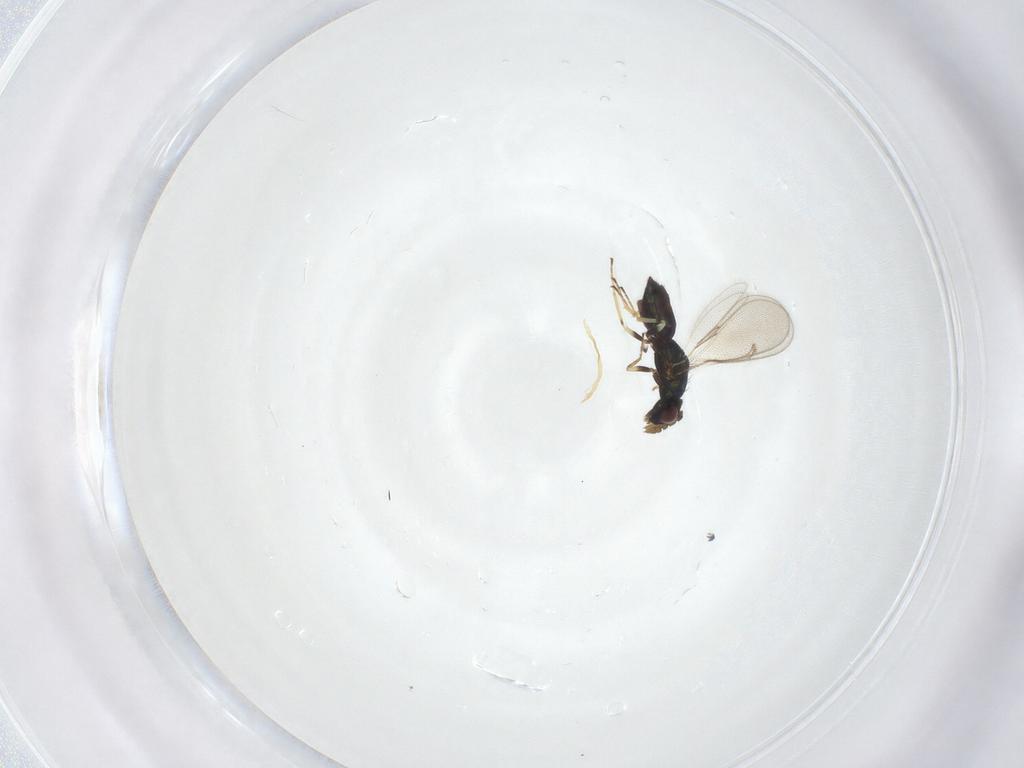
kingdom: Animalia
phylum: Arthropoda
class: Insecta
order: Hymenoptera
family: Eulophidae
